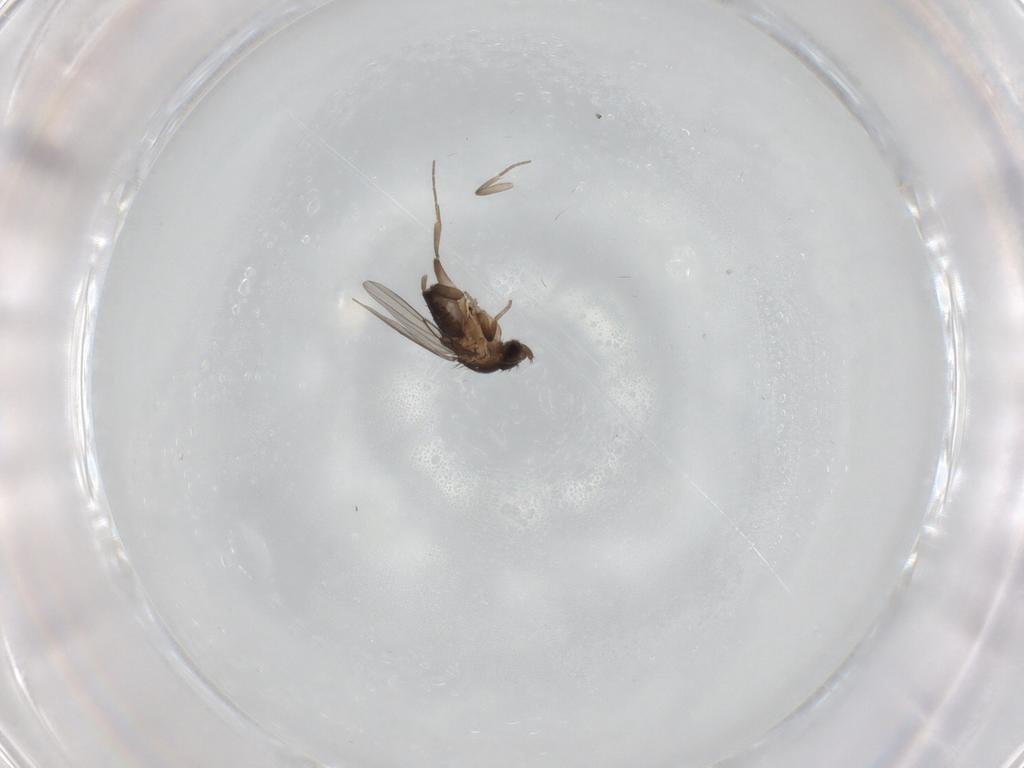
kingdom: Animalia
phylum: Arthropoda
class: Insecta
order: Diptera
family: Phoridae
